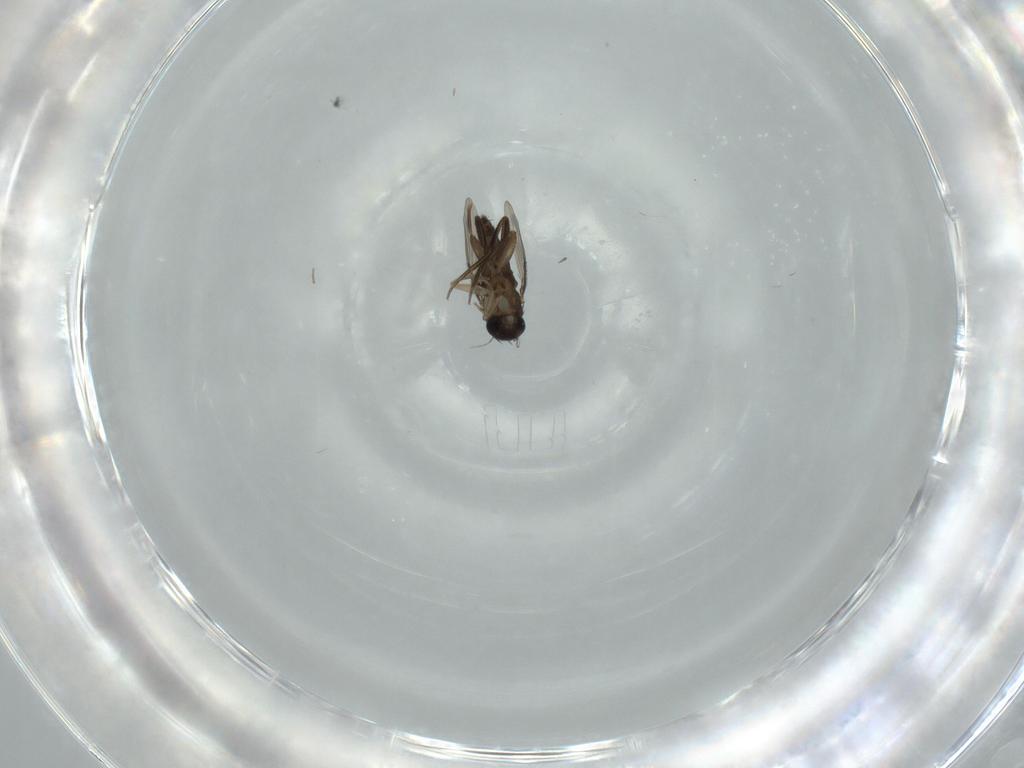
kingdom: Animalia
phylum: Arthropoda
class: Insecta
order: Diptera
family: Phoridae
